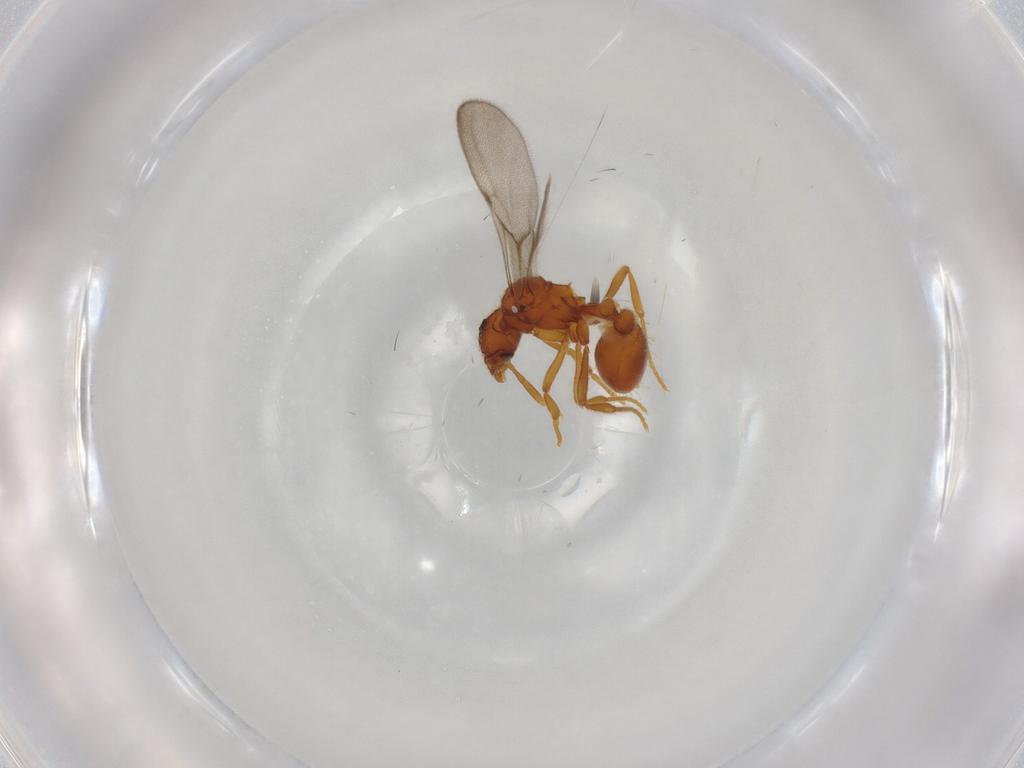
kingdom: Animalia
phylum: Arthropoda
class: Insecta
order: Hymenoptera
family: Formicidae
